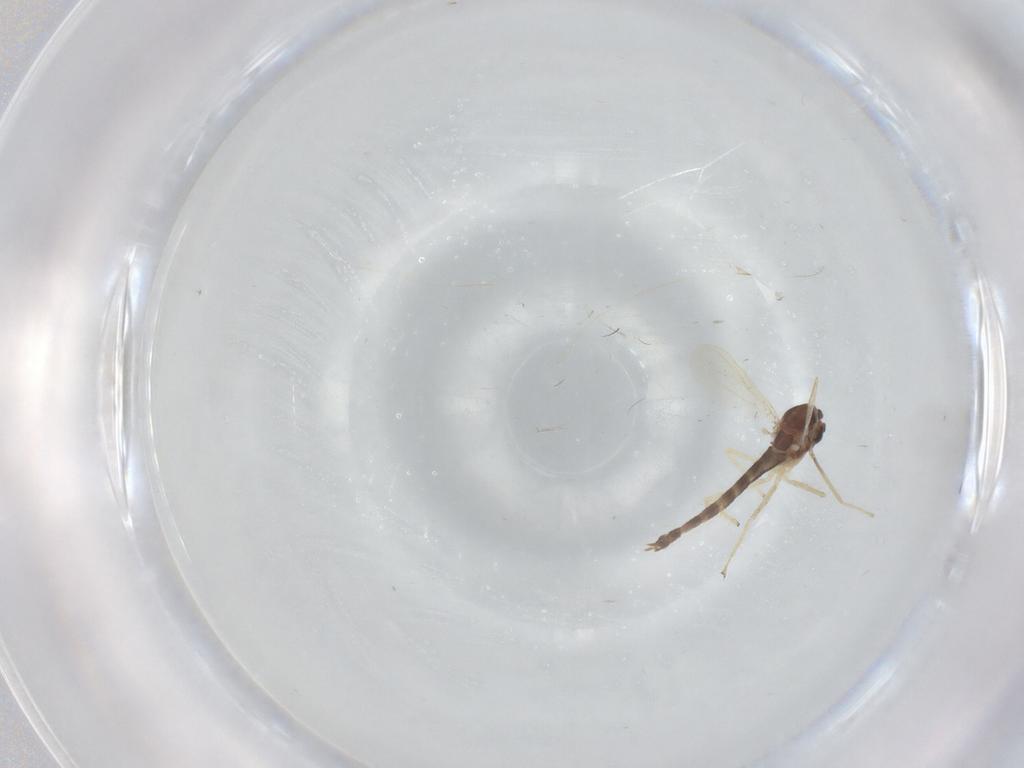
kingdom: Animalia
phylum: Arthropoda
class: Insecta
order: Diptera
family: Chironomidae
